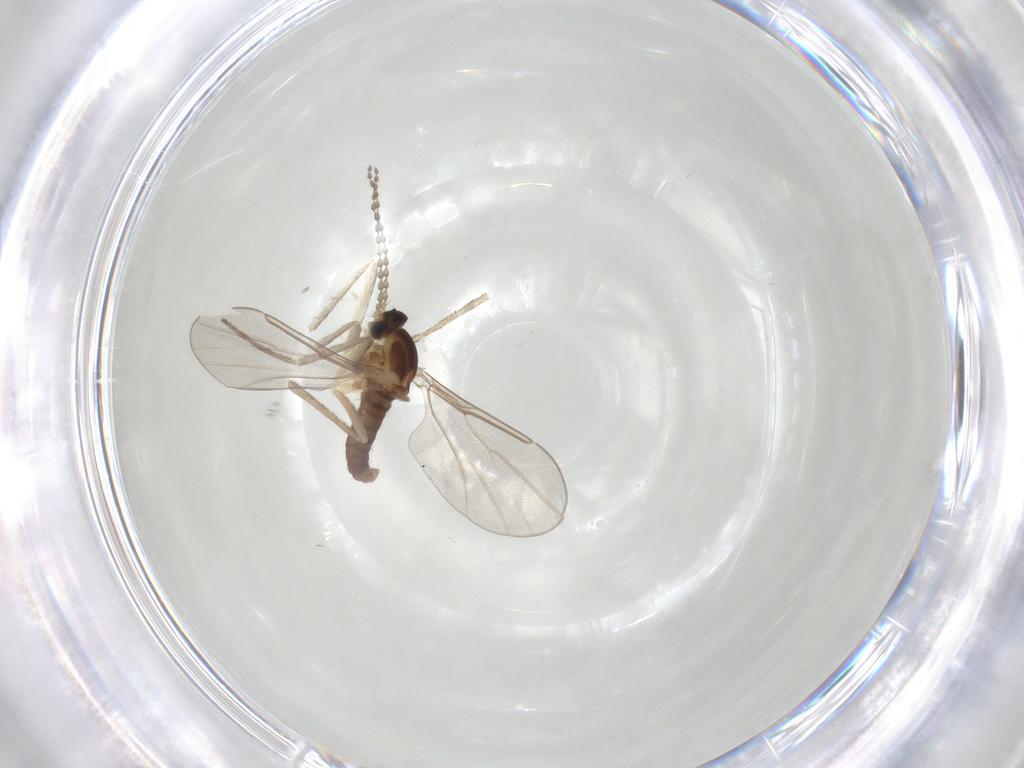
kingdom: Animalia
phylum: Arthropoda
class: Insecta
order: Diptera
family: Cecidomyiidae
